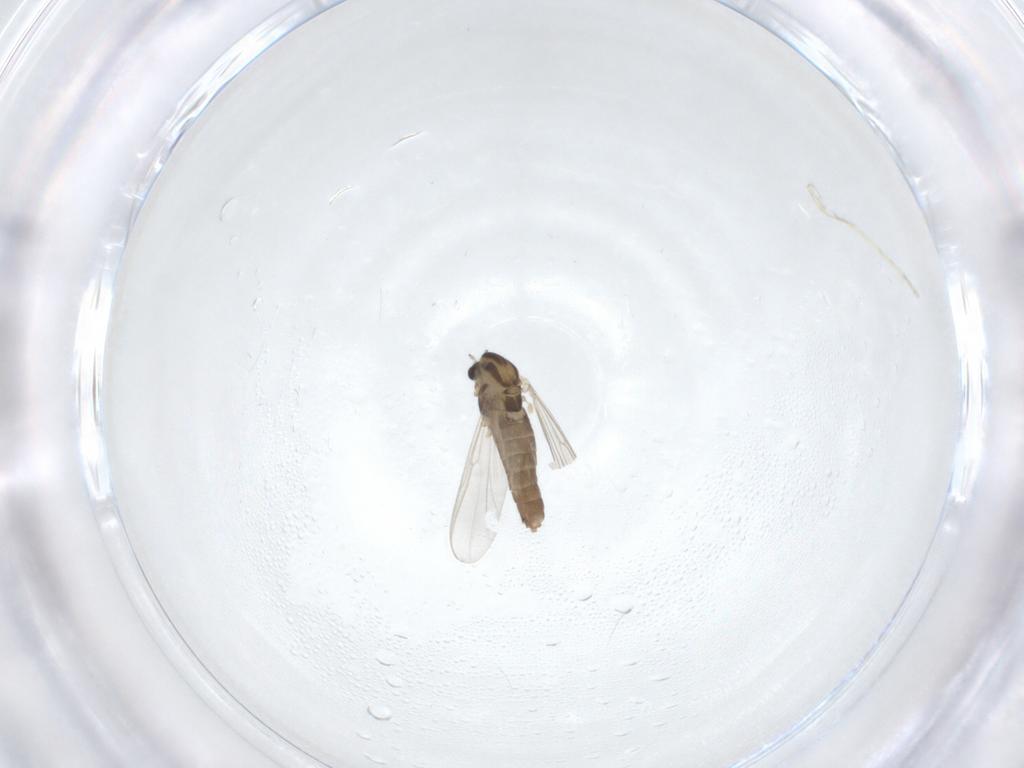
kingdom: Animalia
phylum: Arthropoda
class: Insecta
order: Diptera
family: Chironomidae
